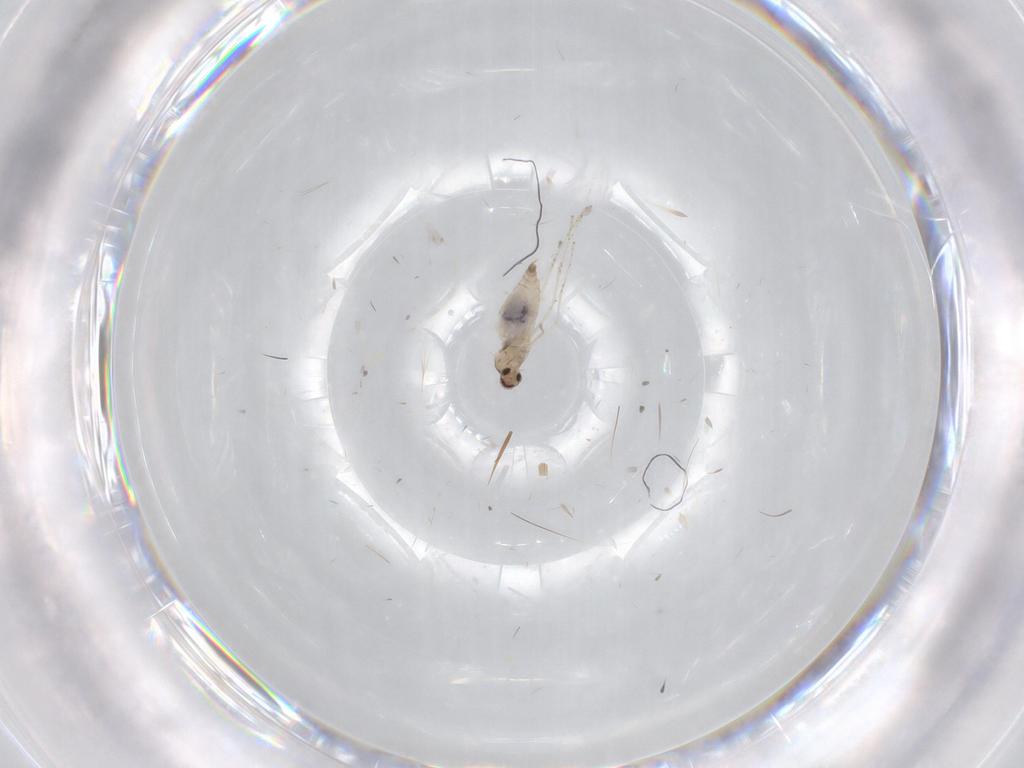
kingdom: Animalia
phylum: Arthropoda
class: Insecta
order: Diptera
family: Cecidomyiidae
